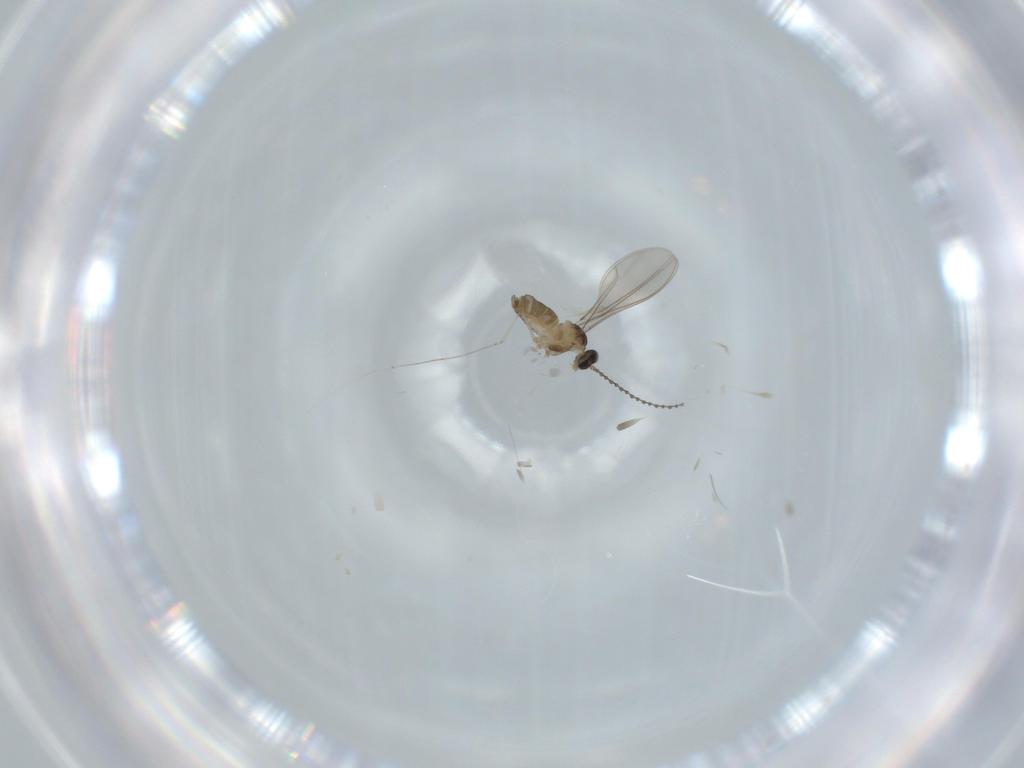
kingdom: Animalia
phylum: Arthropoda
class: Insecta
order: Diptera
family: Cecidomyiidae
